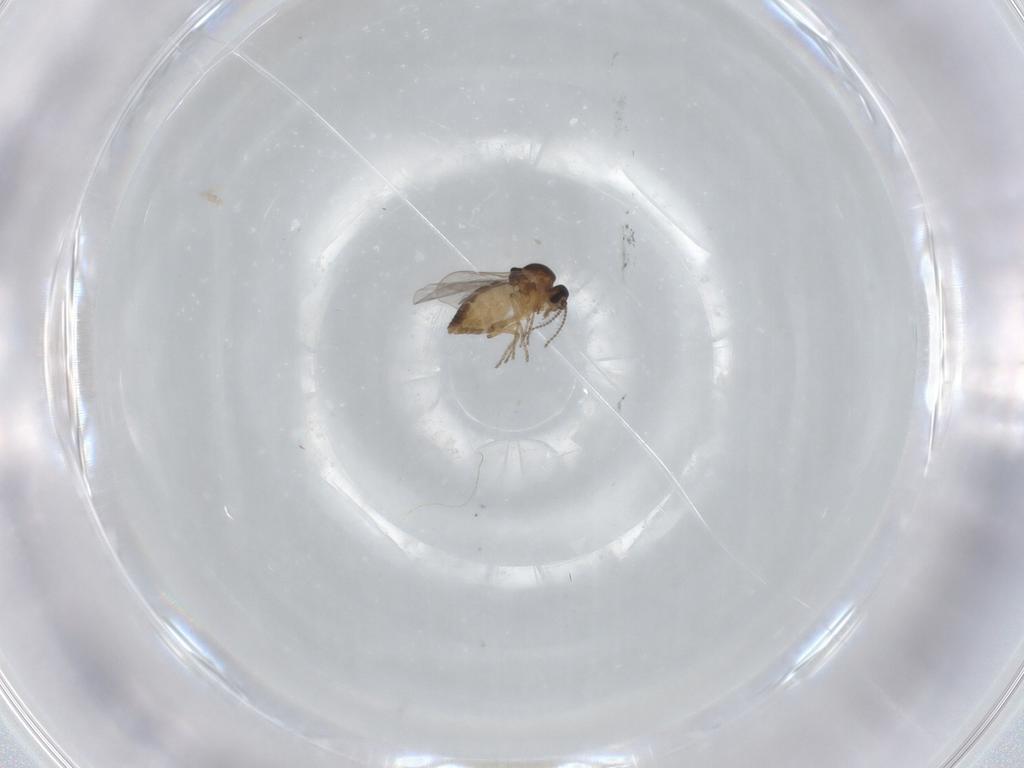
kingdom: Animalia
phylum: Arthropoda
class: Insecta
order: Diptera
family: Ceratopogonidae
